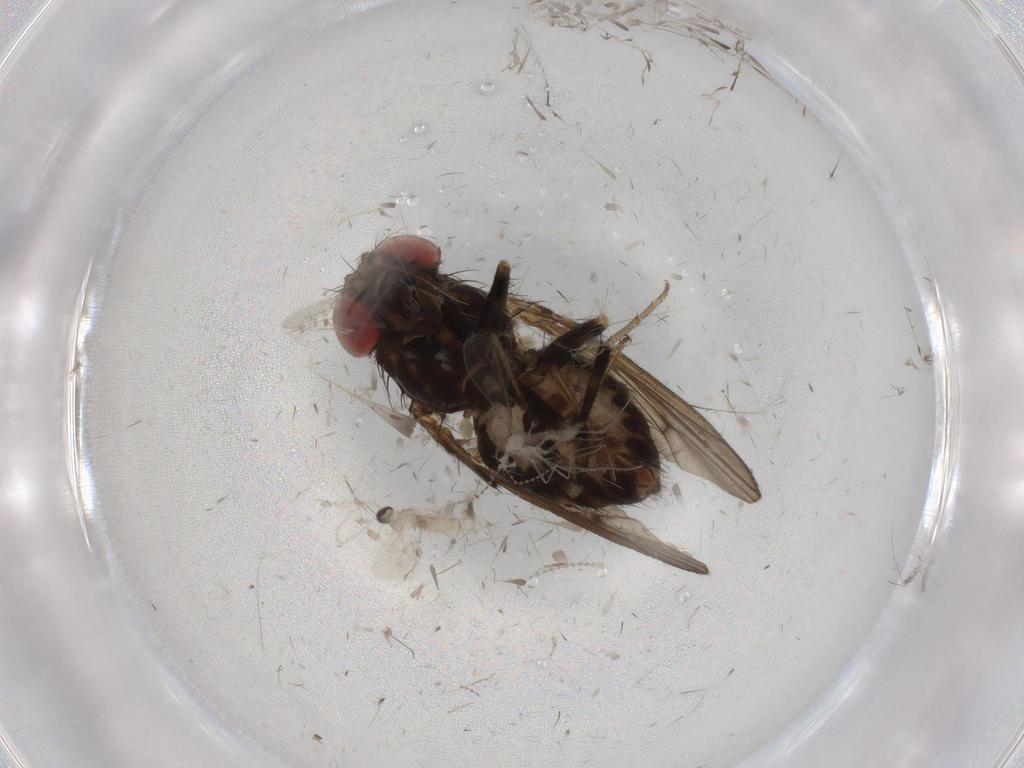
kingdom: Animalia
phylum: Arthropoda
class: Insecta
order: Diptera
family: Drosophilidae
